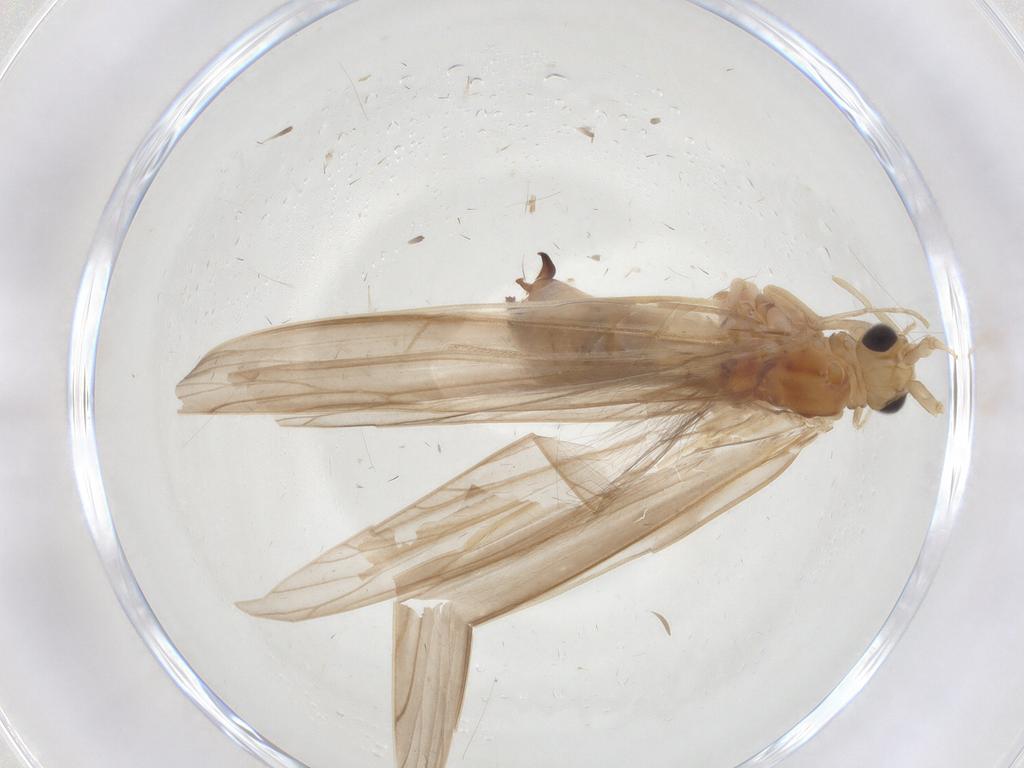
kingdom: Animalia
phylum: Arthropoda
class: Insecta
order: Trichoptera
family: Leptoceridae
